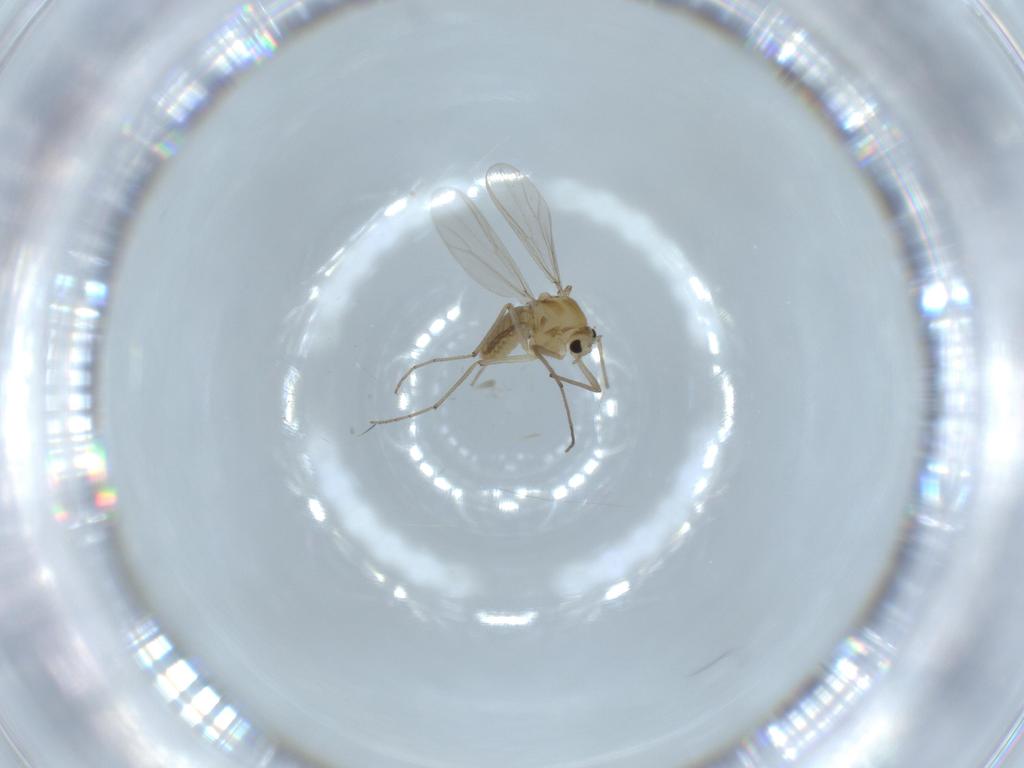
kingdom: Animalia
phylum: Arthropoda
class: Insecta
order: Diptera
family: Chironomidae
